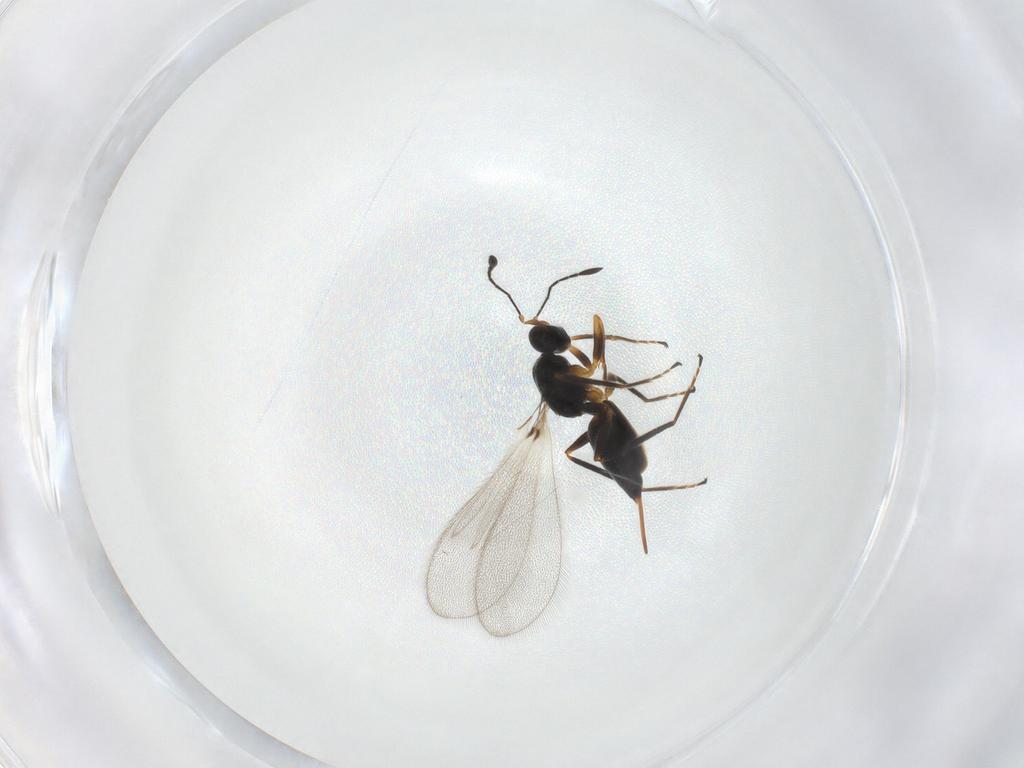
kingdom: Animalia
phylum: Arthropoda
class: Insecta
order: Hymenoptera
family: Mymaridae
